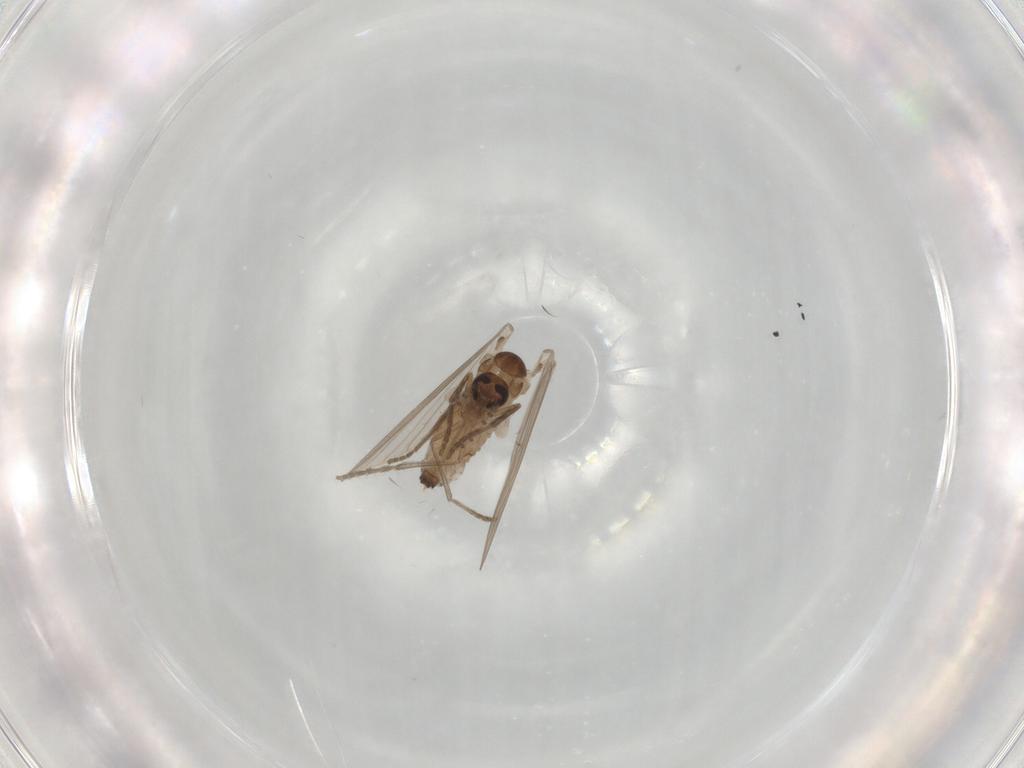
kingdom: Animalia
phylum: Arthropoda
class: Insecta
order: Diptera
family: Psychodidae
